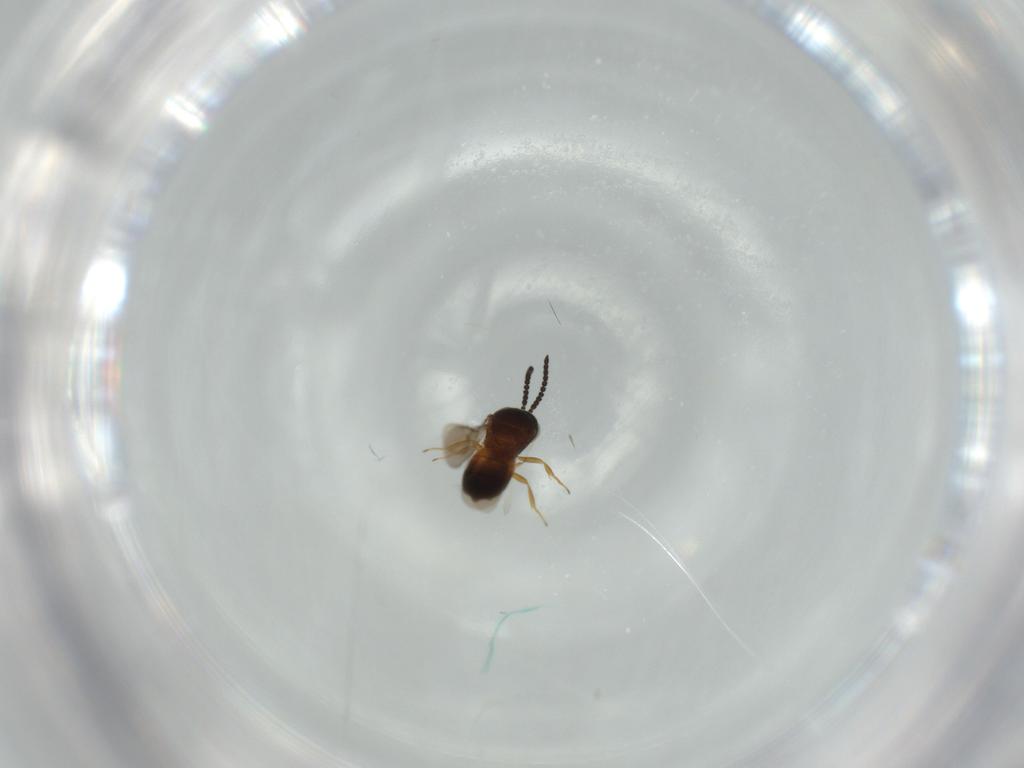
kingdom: Animalia
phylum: Arthropoda
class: Insecta
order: Hymenoptera
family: Scelionidae
